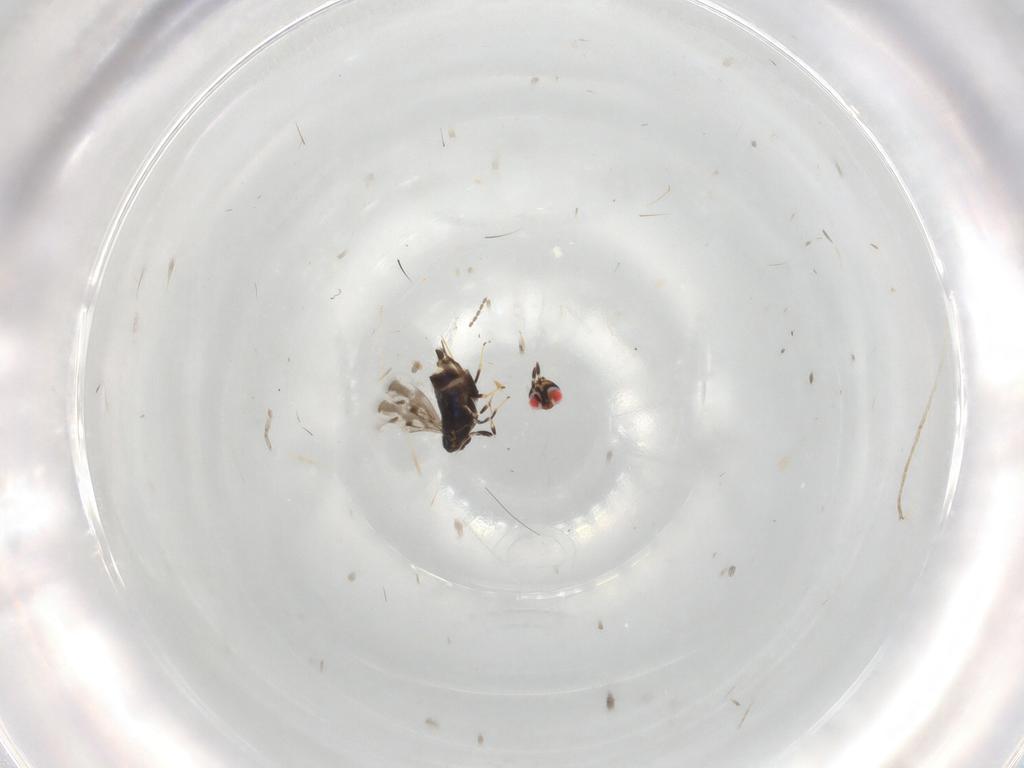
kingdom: Animalia
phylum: Arthropoda
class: Insecta
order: Hymenoptera
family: Azotidae
